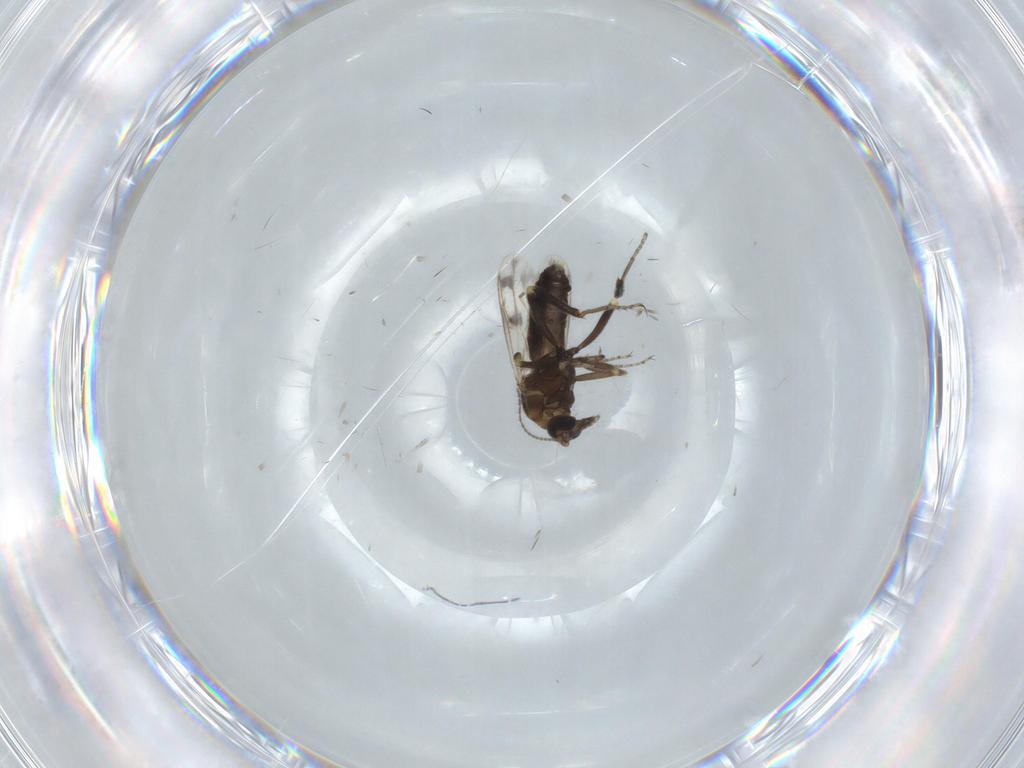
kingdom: Animalia
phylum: Arthropoda
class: Insecta
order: Diptera
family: Ceratopogonidae
